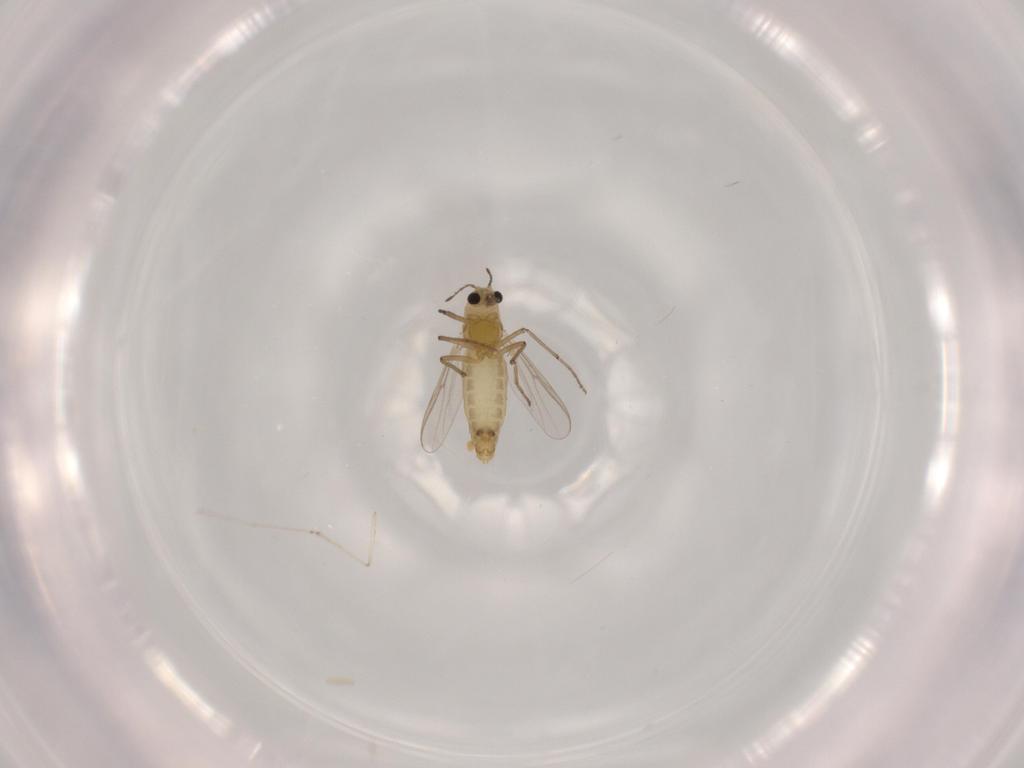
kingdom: Animalia
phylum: Arthropoda
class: Insecta
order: Diptera
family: Chironomidae
